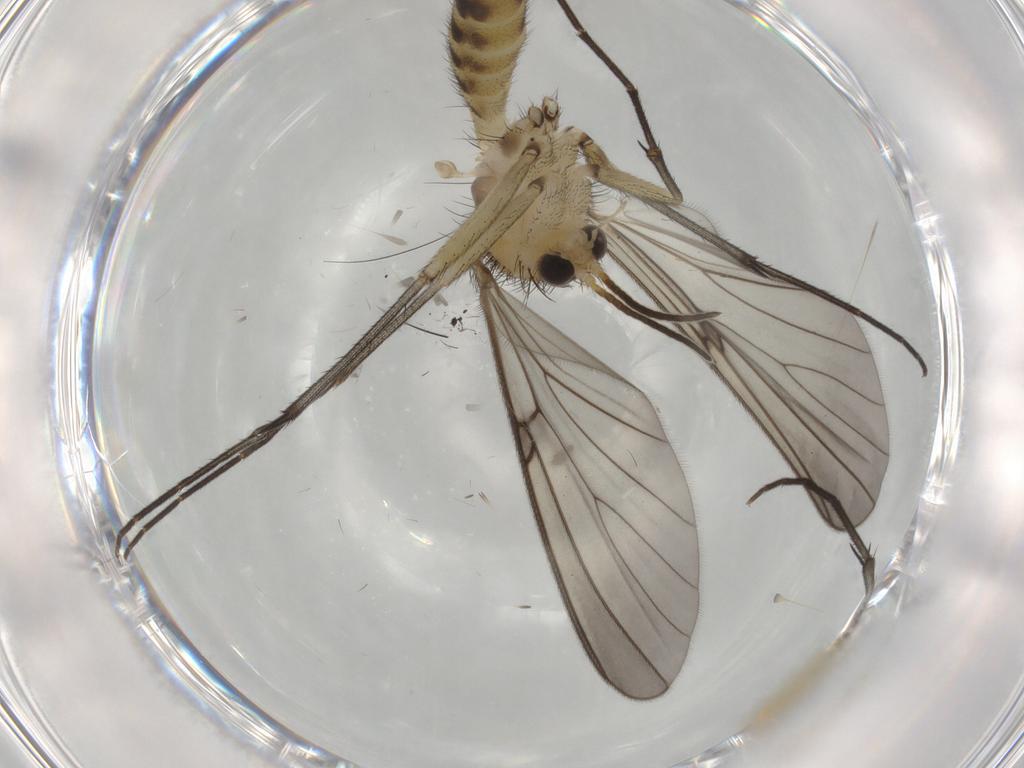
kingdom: Animalia
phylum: Arthropoda
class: Insecta
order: Diptera
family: Mycetophilidae
